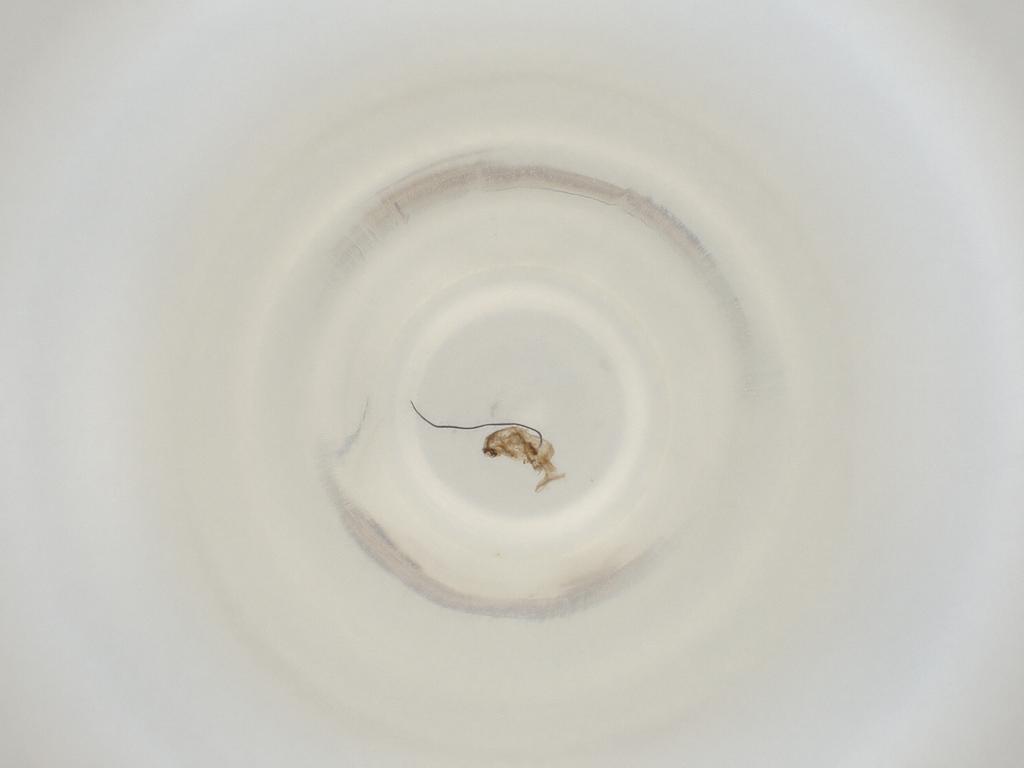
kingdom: Animalia
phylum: Arthropoda
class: Insecta
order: Diptera
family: Cecidomyiidae
